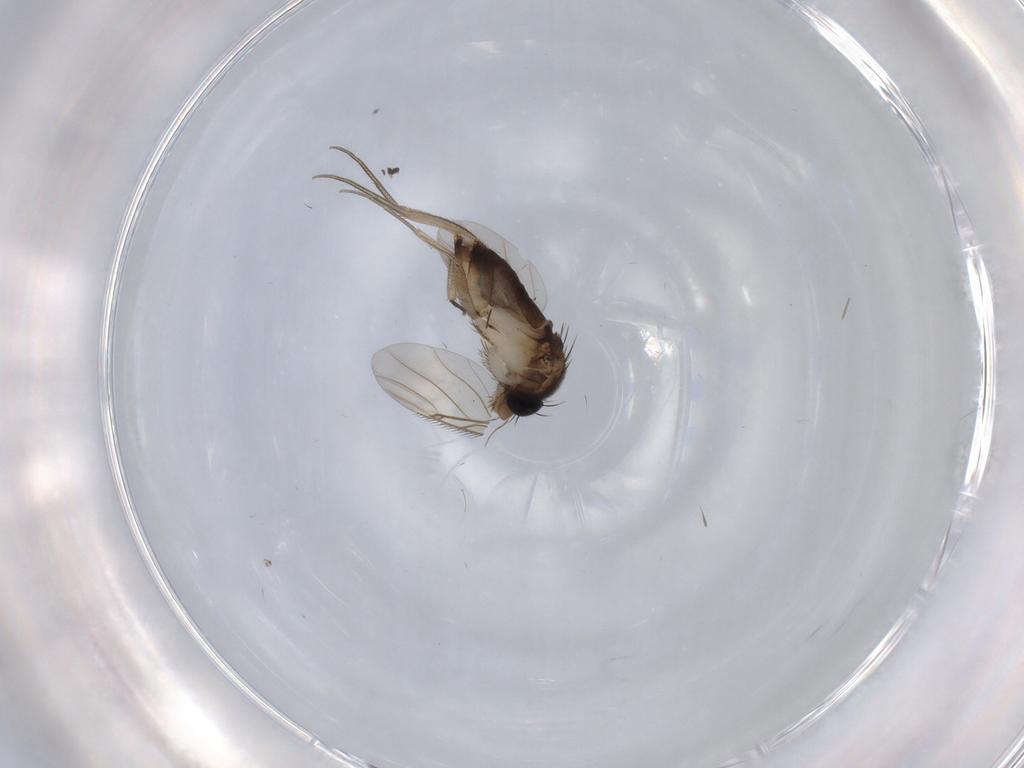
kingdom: Animalia
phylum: Arthropoda
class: Insecta
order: Diptera
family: Phoridae
